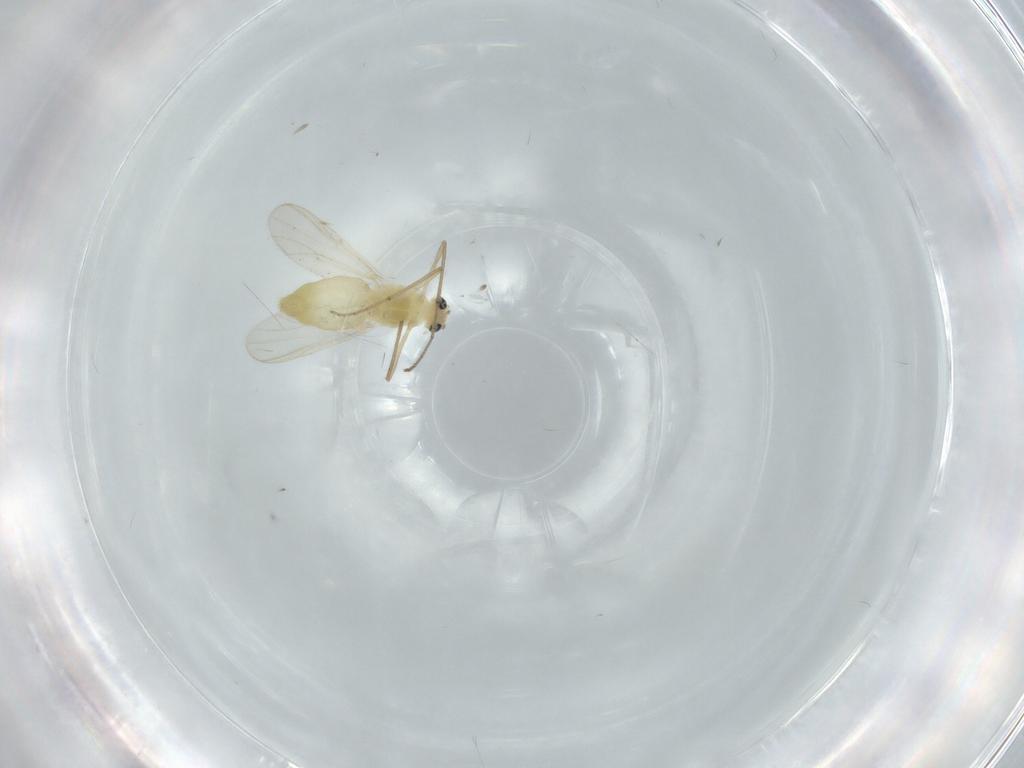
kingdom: Animalia
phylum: Arthropoda
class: Insecta
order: Diptera
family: Chironomidae
